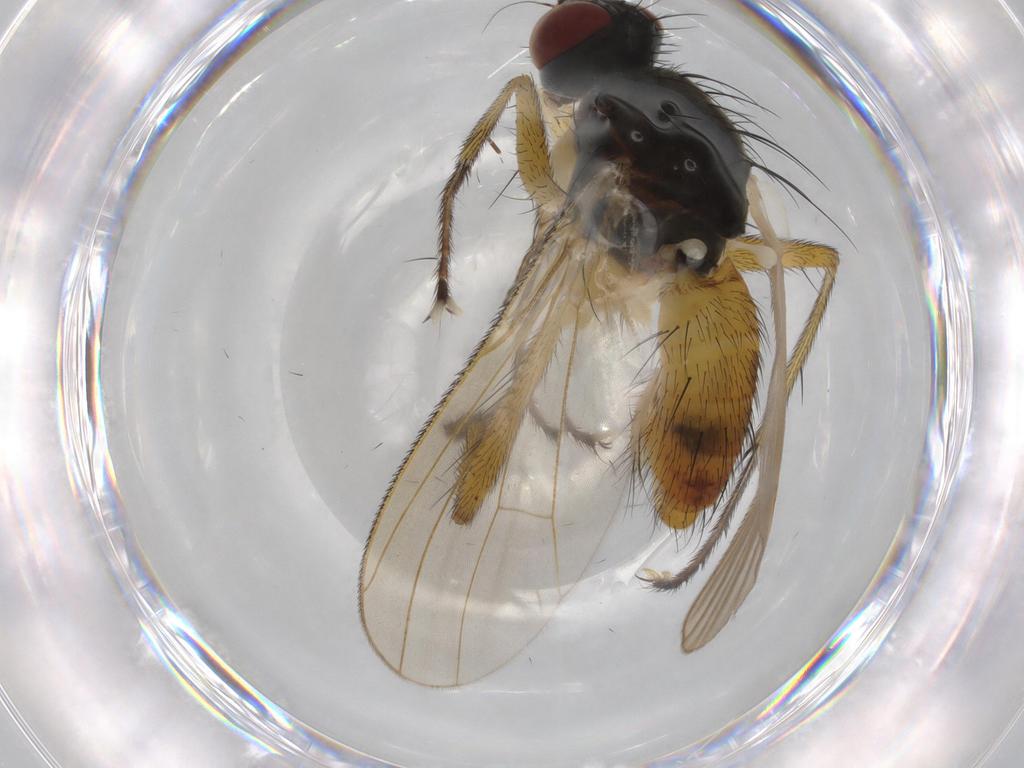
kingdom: Animalia
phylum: Arthropoda
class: Insecta
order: Diptera
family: Muscidae
